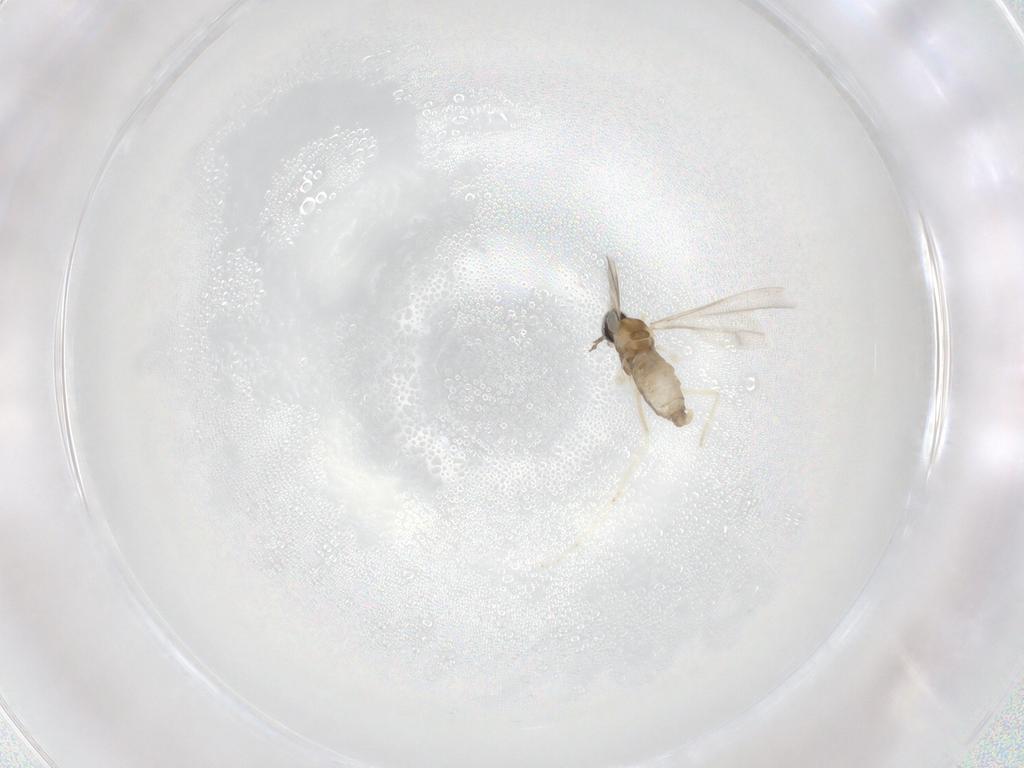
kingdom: Animalia
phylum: Arthropoda
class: Insecta
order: Diptera
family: Cecidomyiidae
